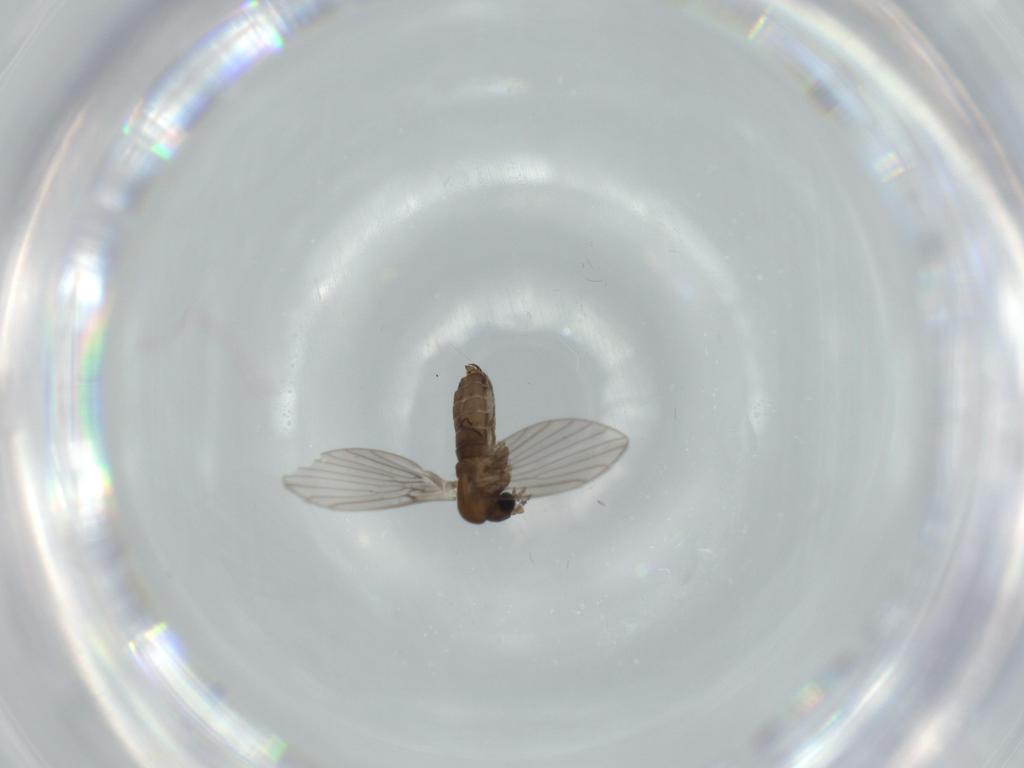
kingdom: Animalia
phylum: Arthropoda
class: Insecta
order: Diptera
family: Psychodidae
